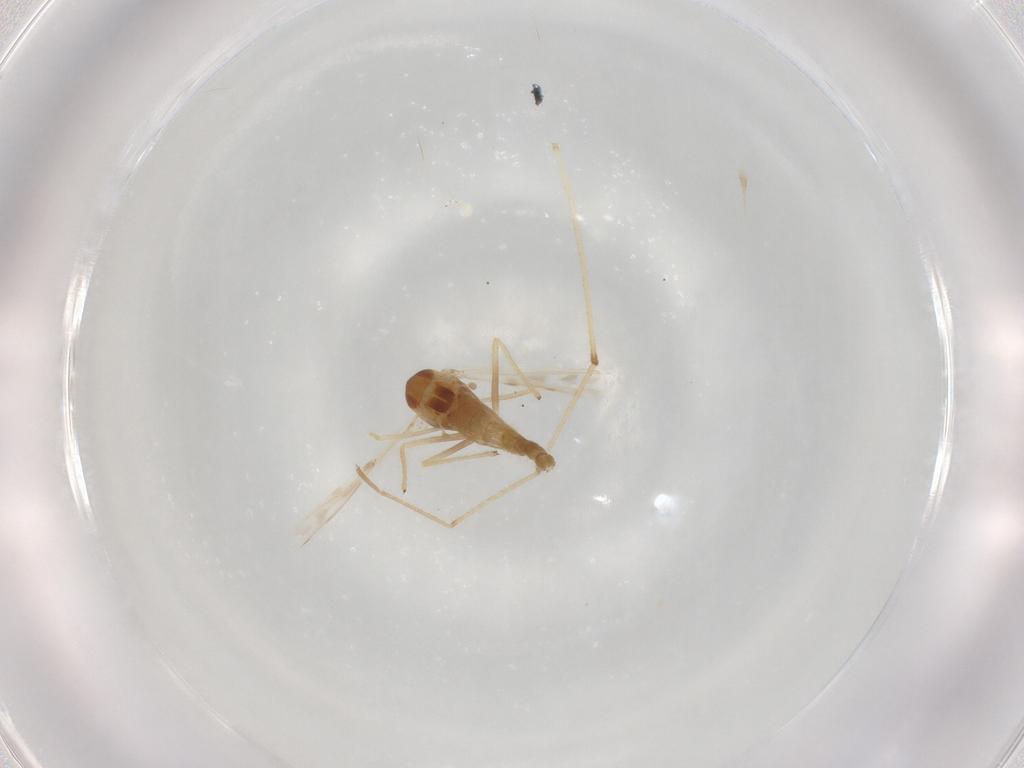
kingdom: Animalia
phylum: Arthropoda
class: Insecta
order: Diptera
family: Chironomidae
